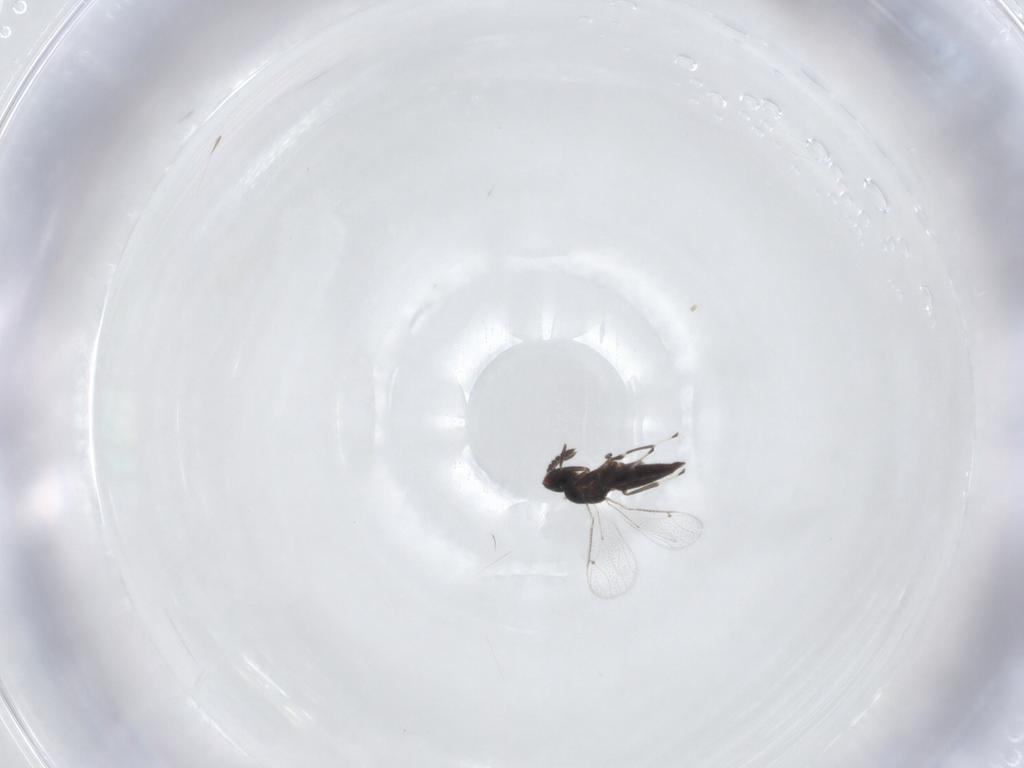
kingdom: Animalia
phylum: Arthropoda
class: Insecta
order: Hymenoptera
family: Eulophidae
